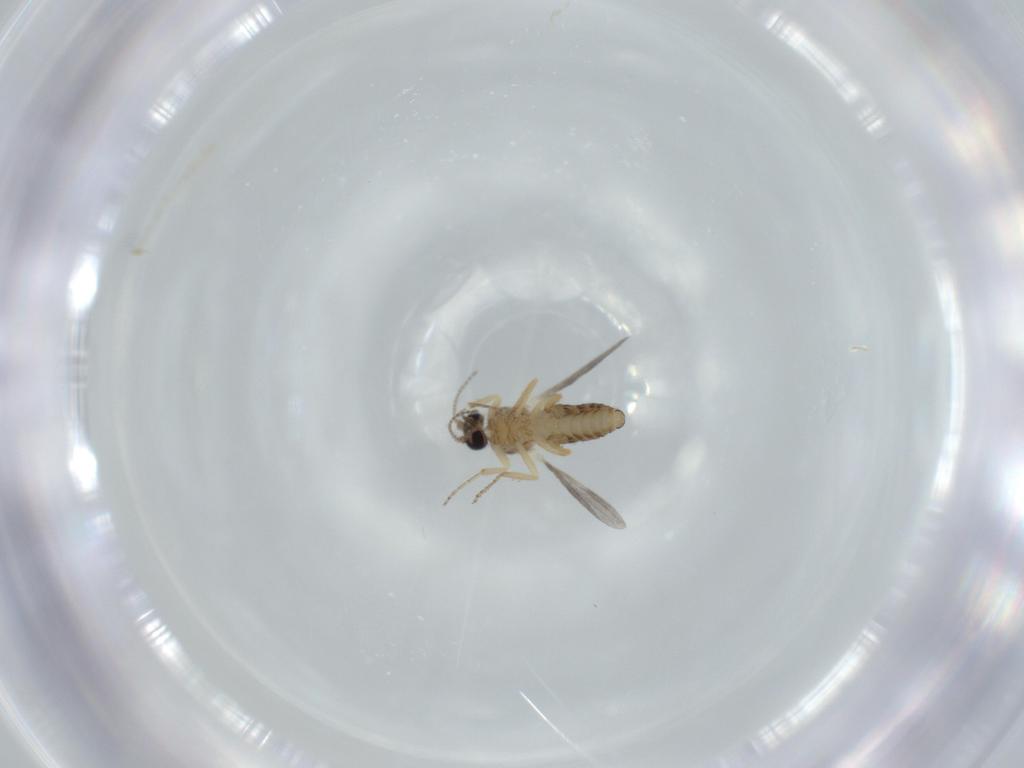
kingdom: Animalia
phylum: Arthropoda
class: Insecta
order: Diptera
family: Ceratopogonidae
